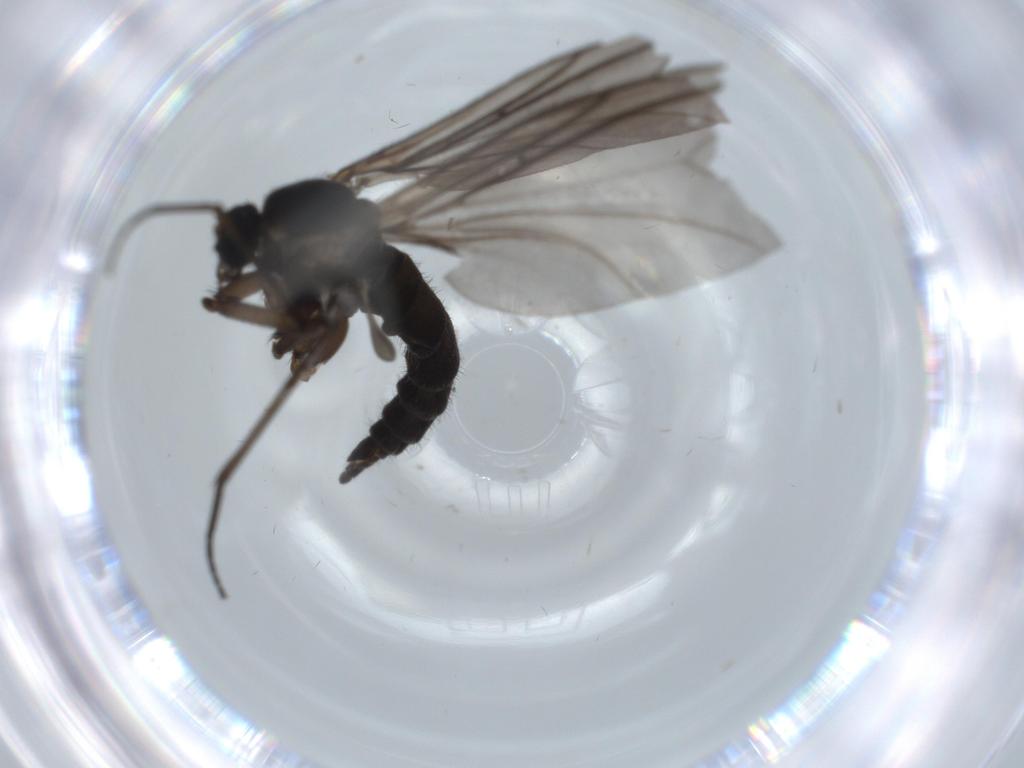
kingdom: Animalia
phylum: Arthropoda
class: Insecta
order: Diptera
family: Sciaridae
